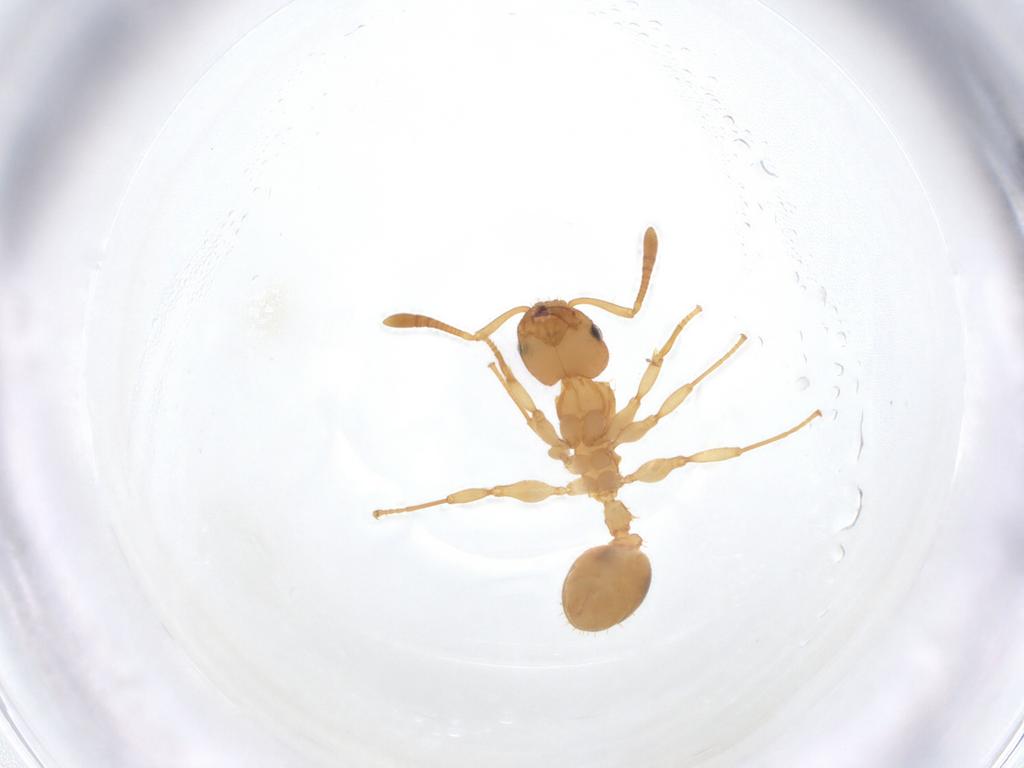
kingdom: Animalia
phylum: Arthropoda
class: Insecta
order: Hymenoptera
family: Formicidae
